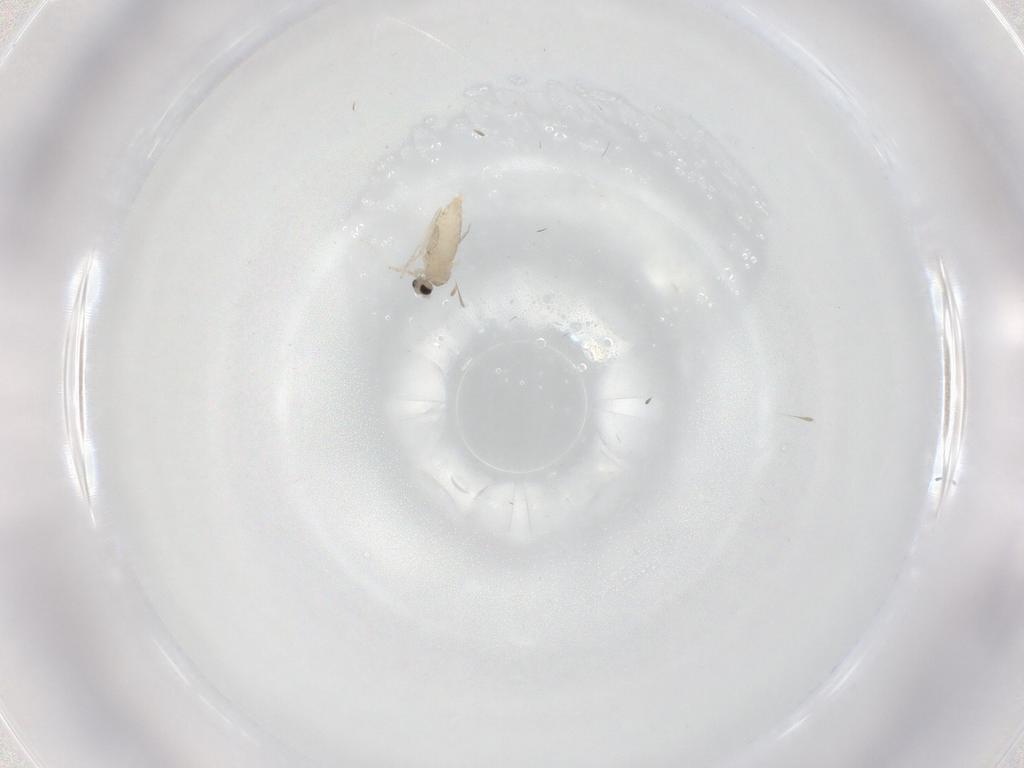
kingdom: Animalia
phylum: Arthropoda
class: Insecta
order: Diptera
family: Cecidomyiidae
